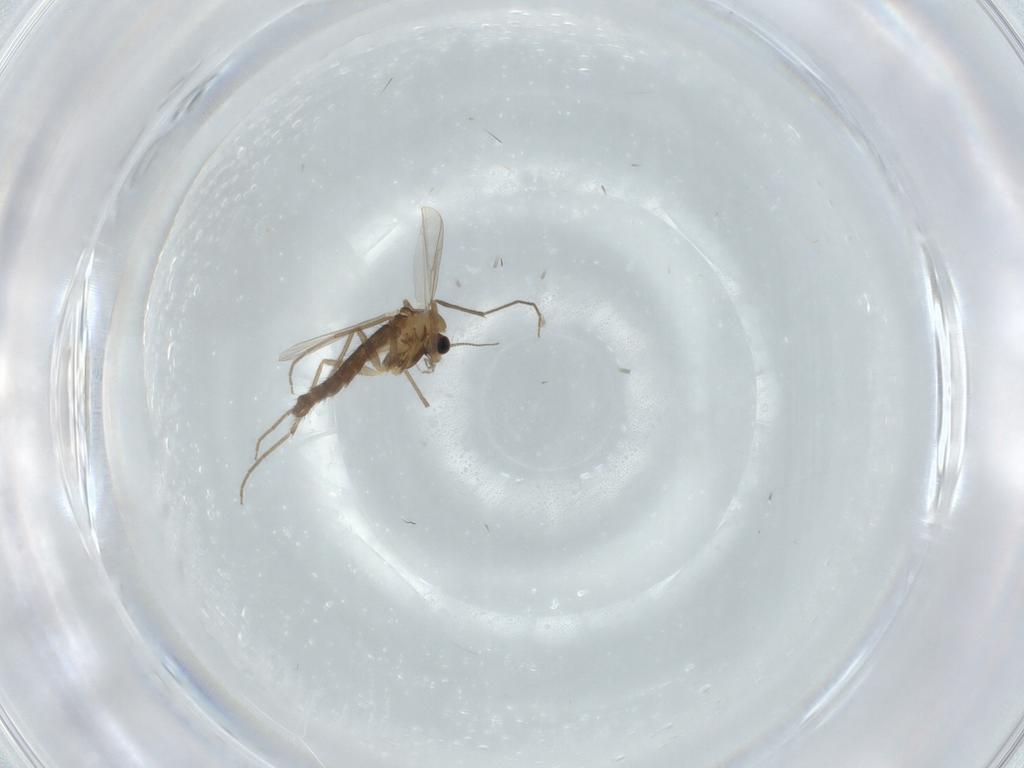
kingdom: Animalia
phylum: Arthropoda
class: Insecta
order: Diptera
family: Chironomidae
